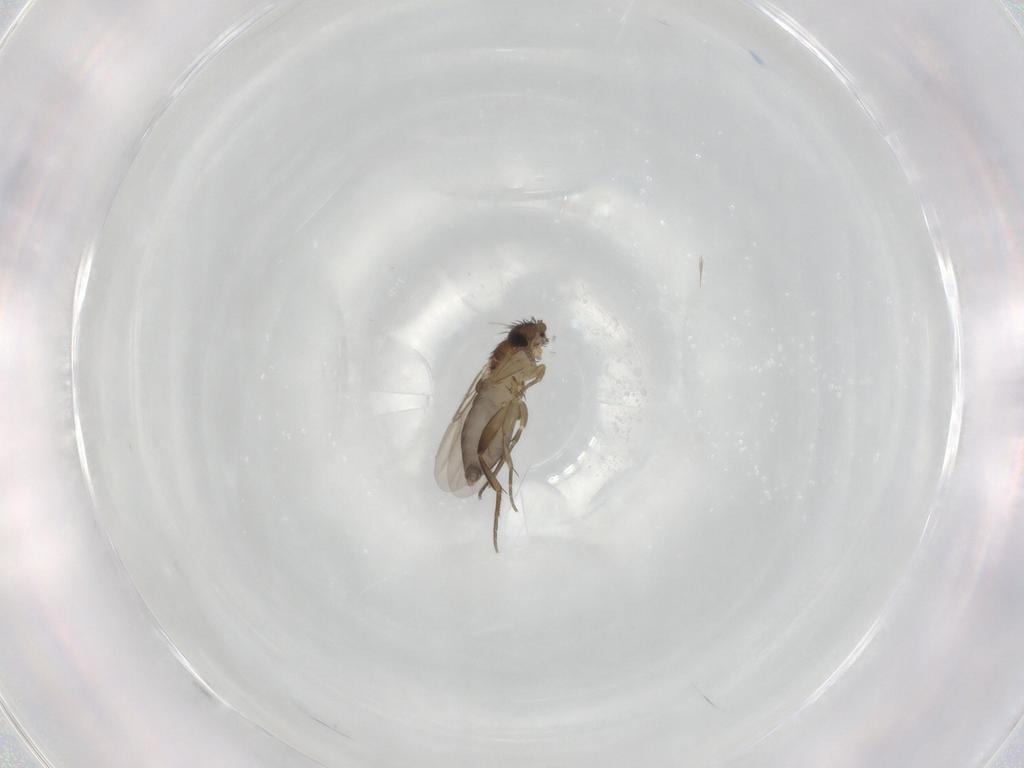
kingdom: Animalia
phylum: Arthropoda
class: Insecta
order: Diptera
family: Phoridae
